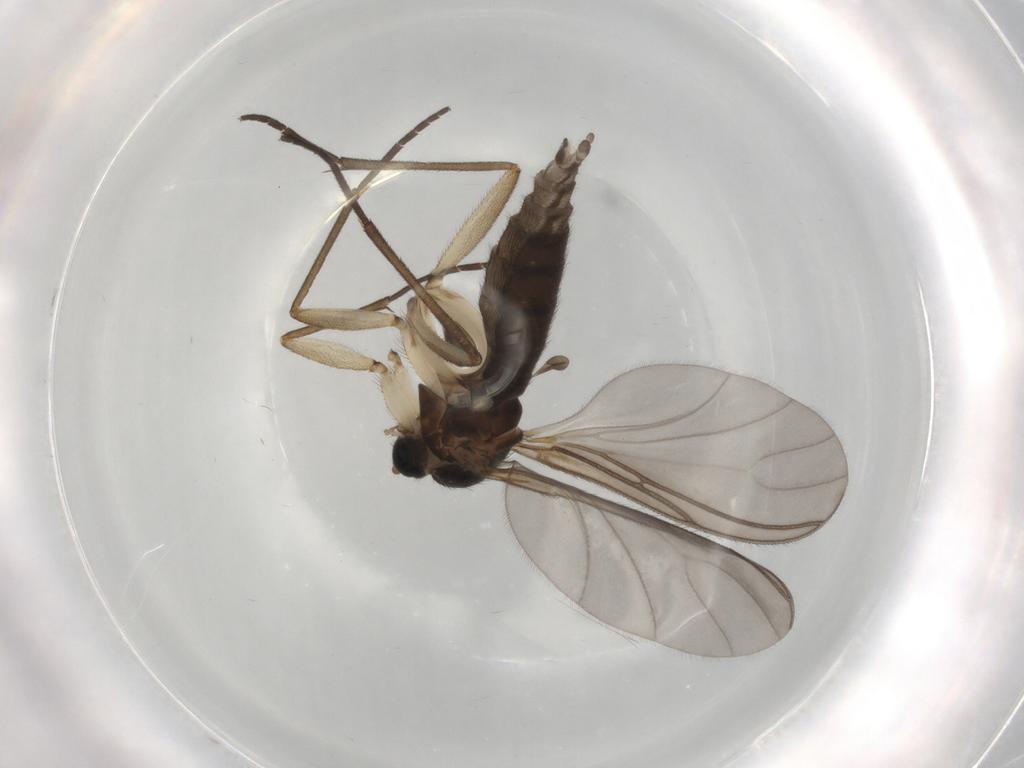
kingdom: Animalia
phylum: Arthropoda
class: Insecta
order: Diptera
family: Sciaridae
